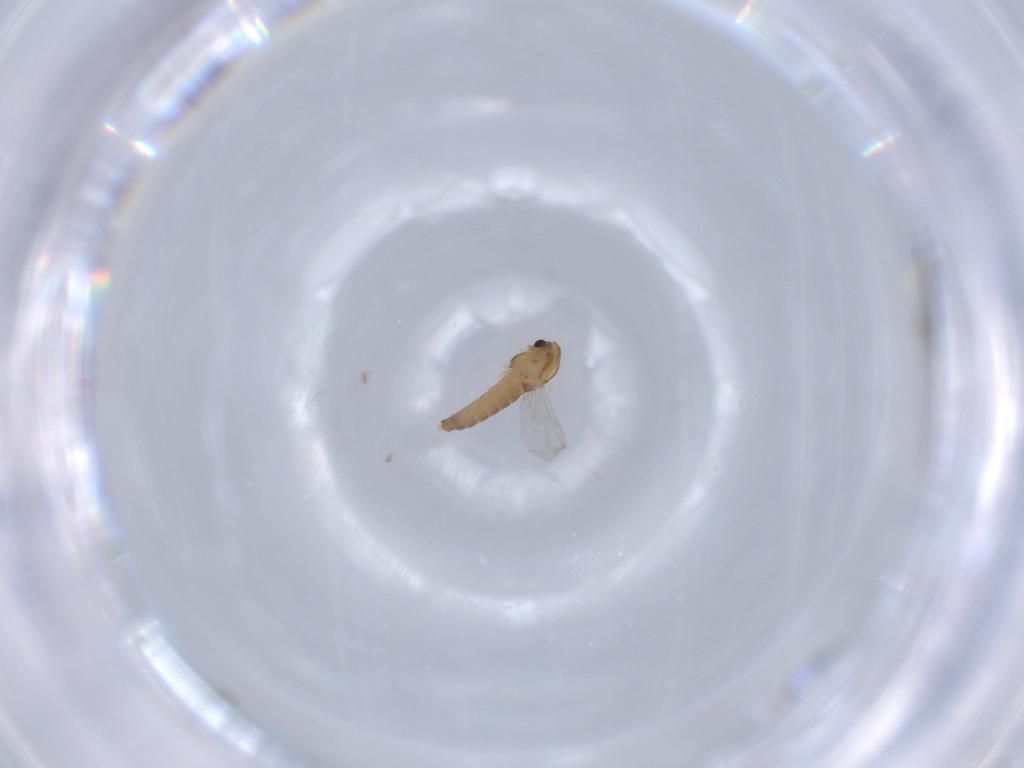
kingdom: Animalia
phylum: Arthropoda
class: Insecta
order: Diptera
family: Chironomidae
